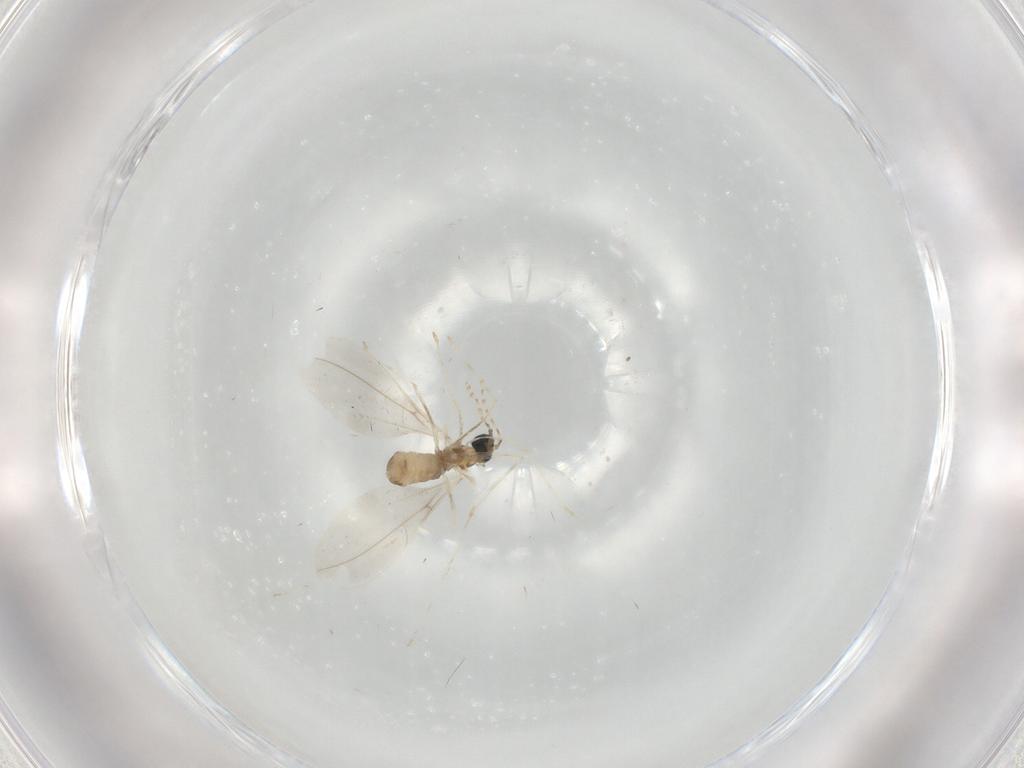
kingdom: Animalia
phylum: Arthropoda
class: Insecta
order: Diptera
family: Cecidomyiidae
